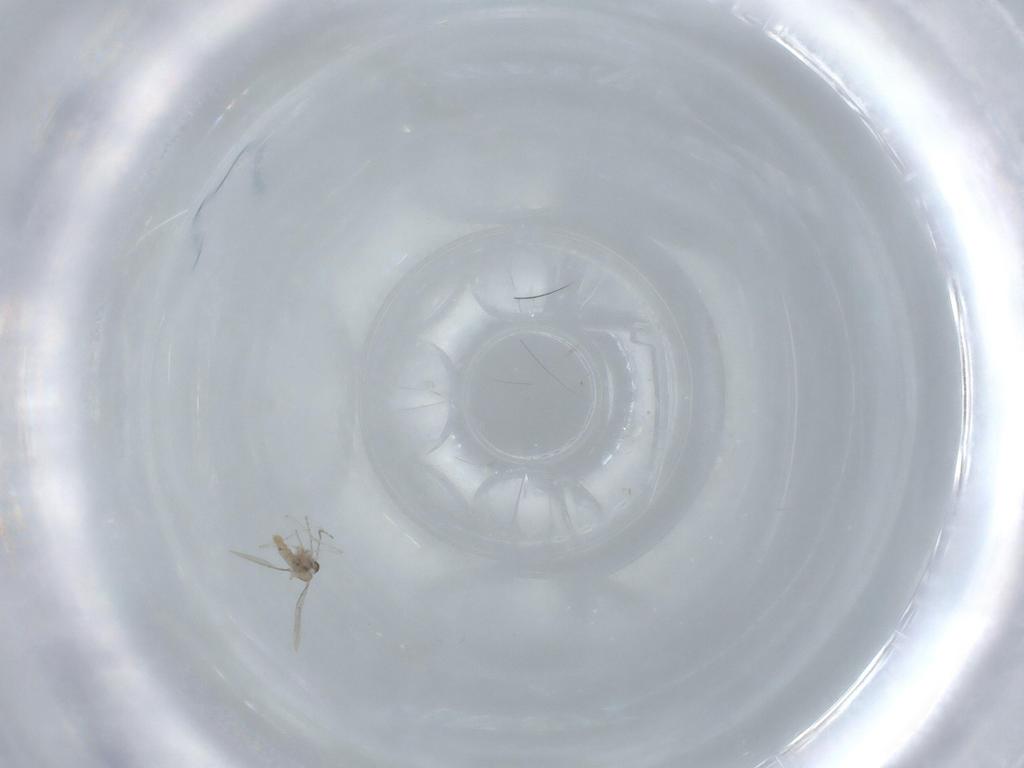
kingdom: Animalia
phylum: Arthropoda
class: Insecta
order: Diptera
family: Cecidomyiidae
